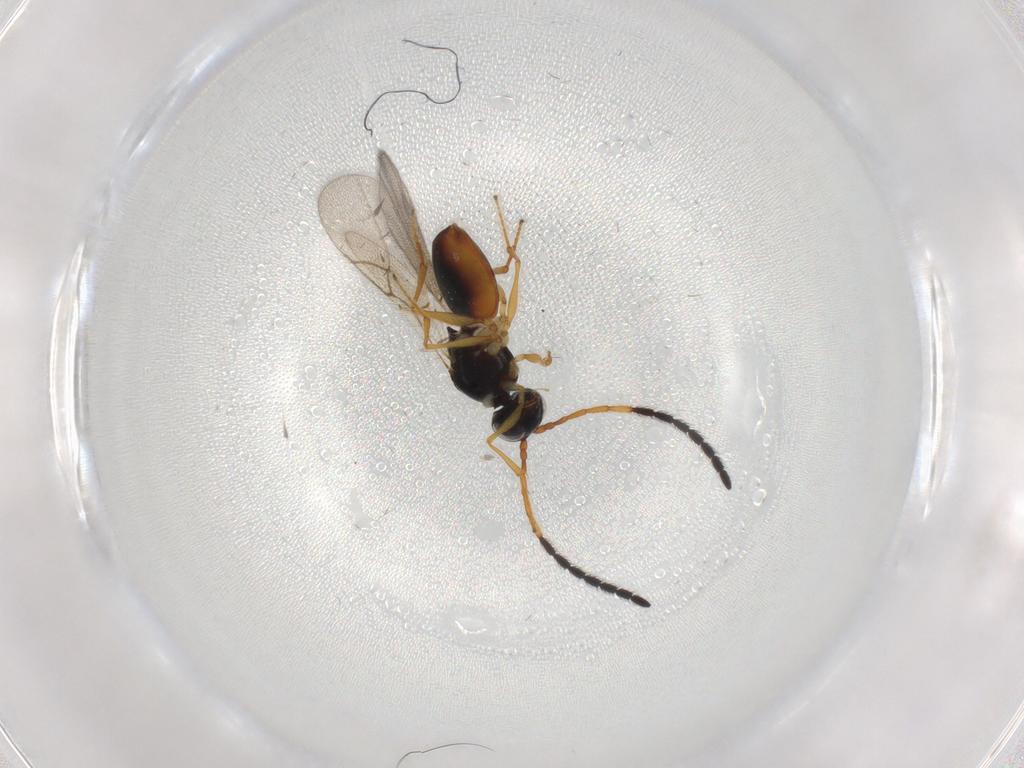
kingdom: Animalia
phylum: Arthropoda
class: Insecta
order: Hymenoptera
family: Figitidae
